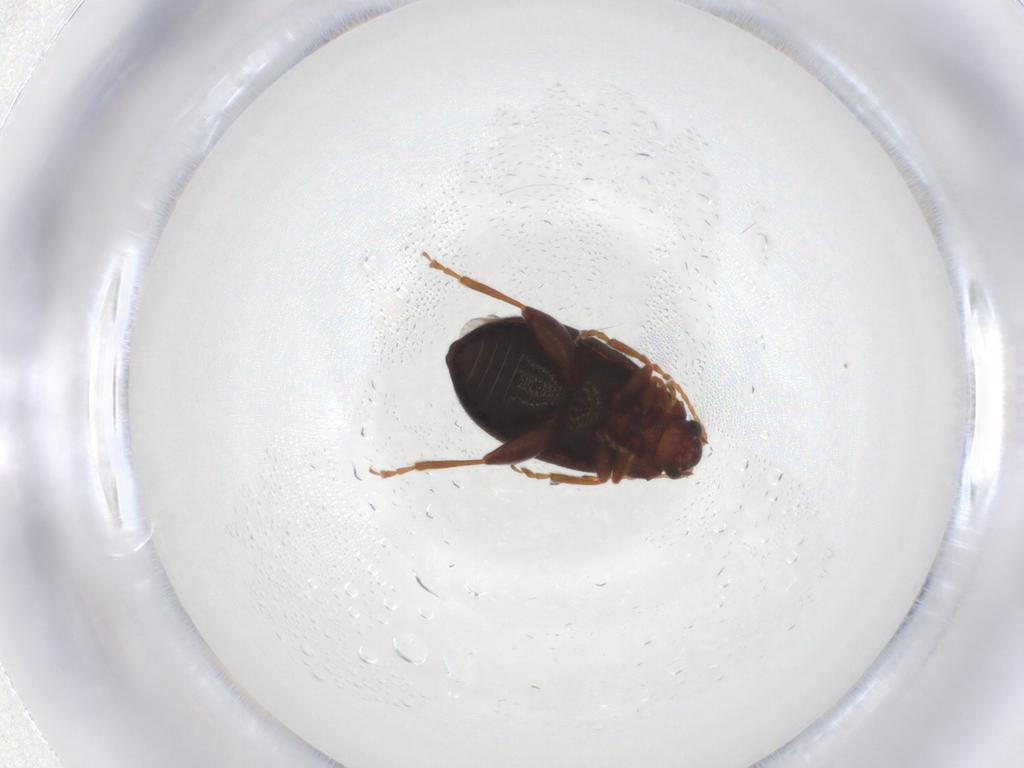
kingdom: Animalia
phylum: Arthropoda
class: Insecta
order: Coleoptera
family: Chrysomelidae
